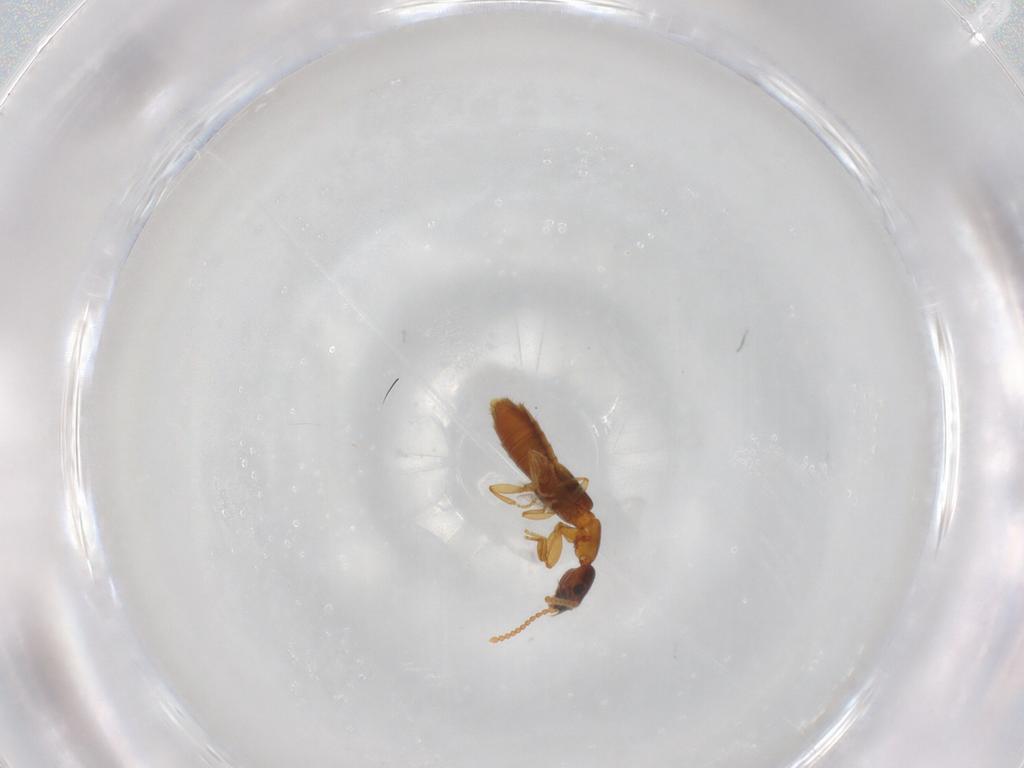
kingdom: Animalia
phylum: Arthropoda
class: Insecta
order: Coleoptera
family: Staphylinidae
